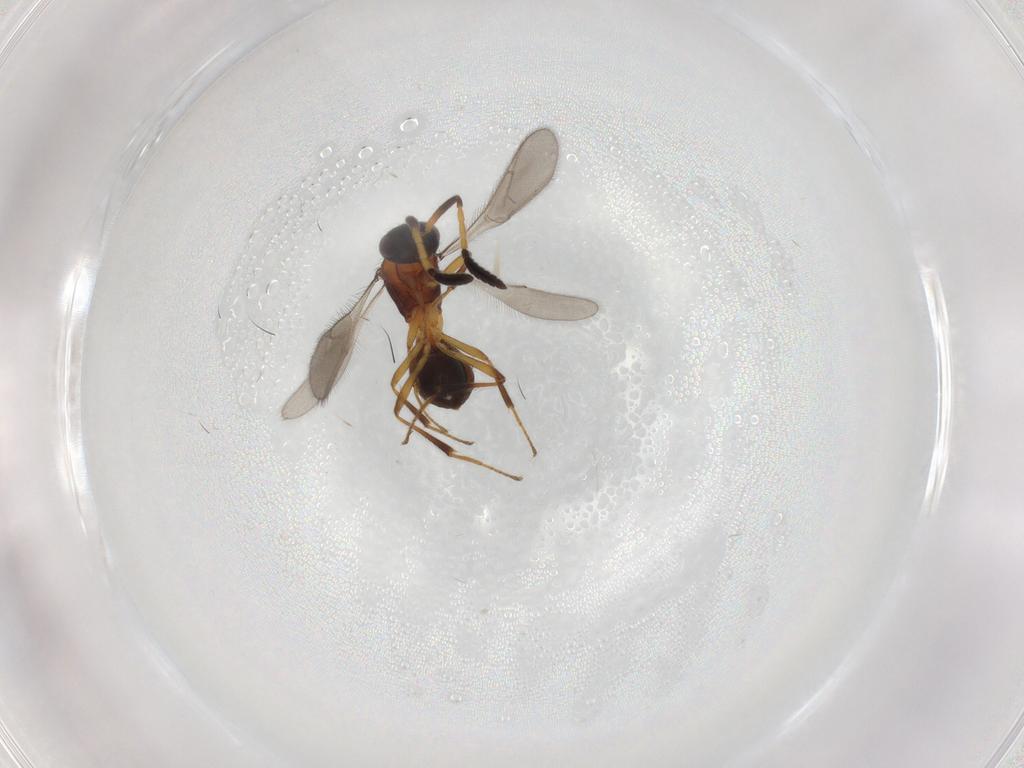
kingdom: Animalia
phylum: Arthropoda
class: Insecta
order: Hymenoptera
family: Scelionidae
